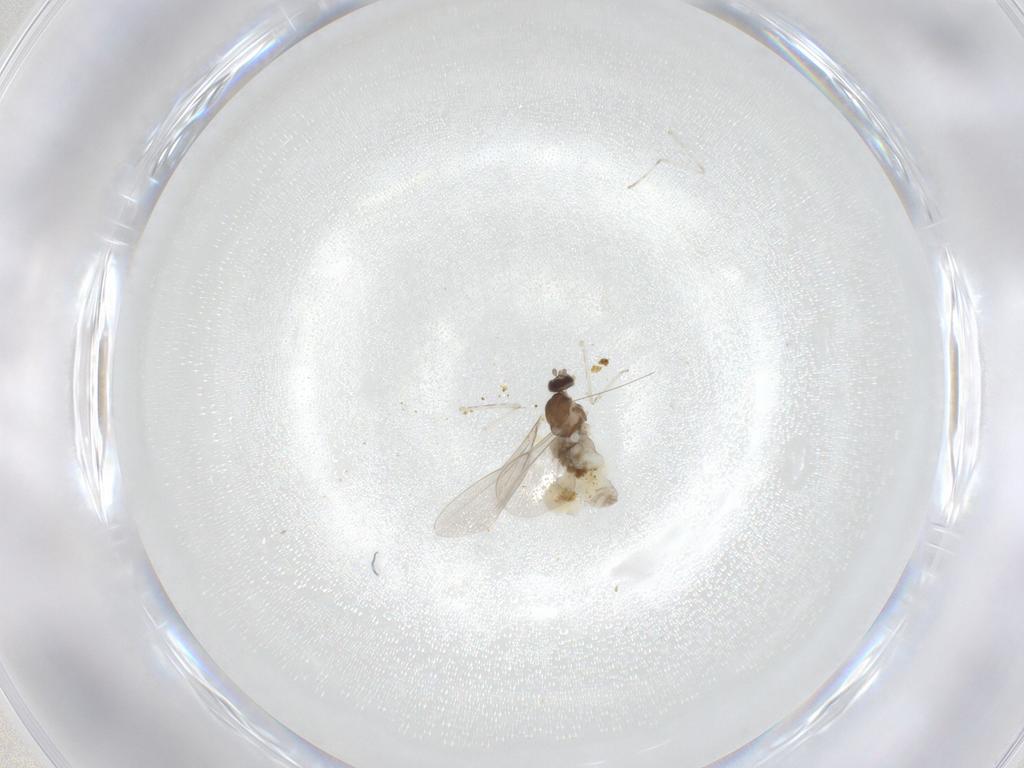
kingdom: Animalia
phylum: Arthropoda
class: Insecta
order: Diptera
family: Cecidomyiidae
